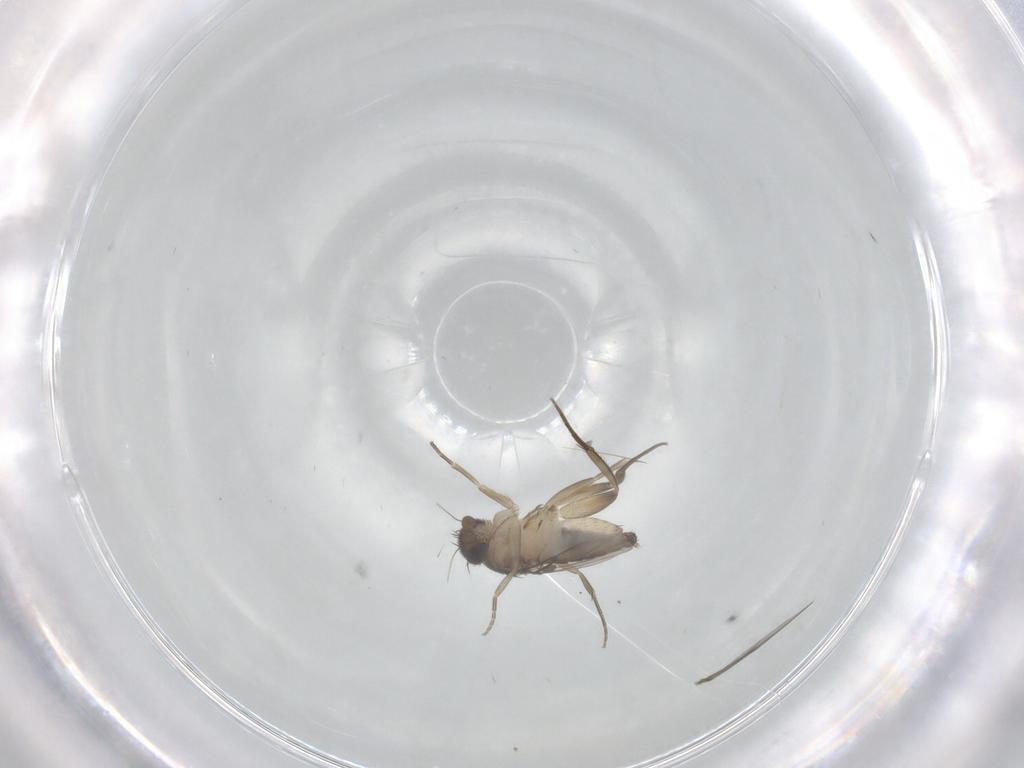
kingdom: Animalia
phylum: Arthropoda
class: Insecta
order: Diptera
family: Phoridae
